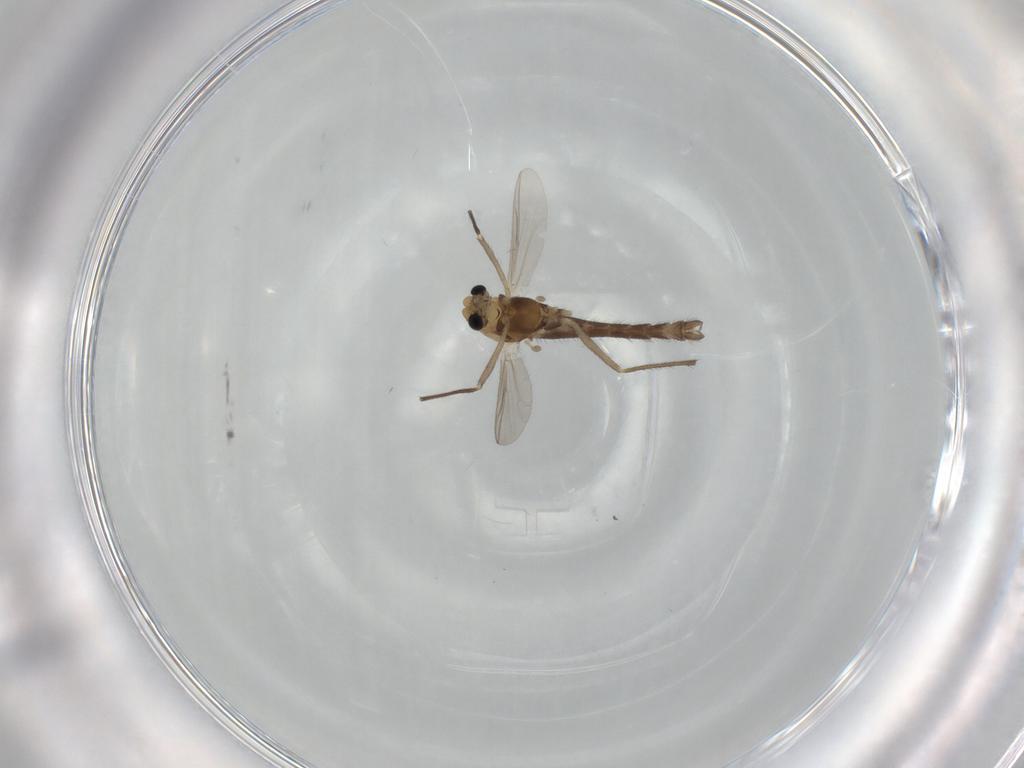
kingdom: Animalia
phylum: Arthropoda
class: Insecta
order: Diptera
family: Chironomidae
